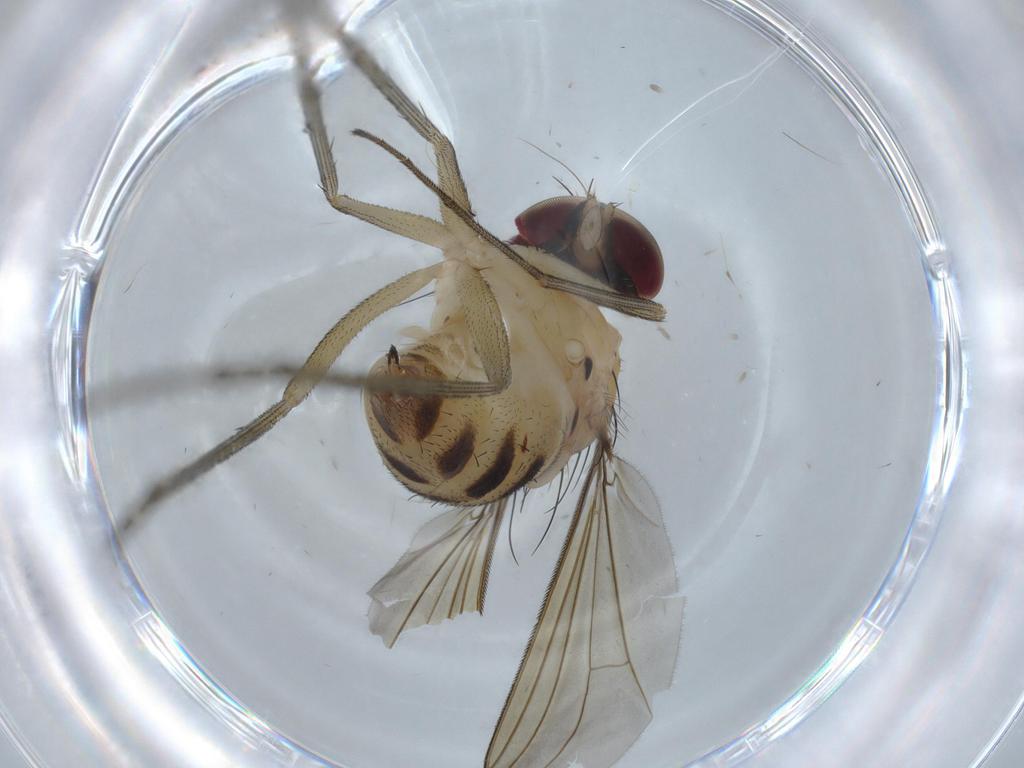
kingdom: Animalia
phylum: Arthropoda
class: Insecta
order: Diptera
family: Dolichopodidae
